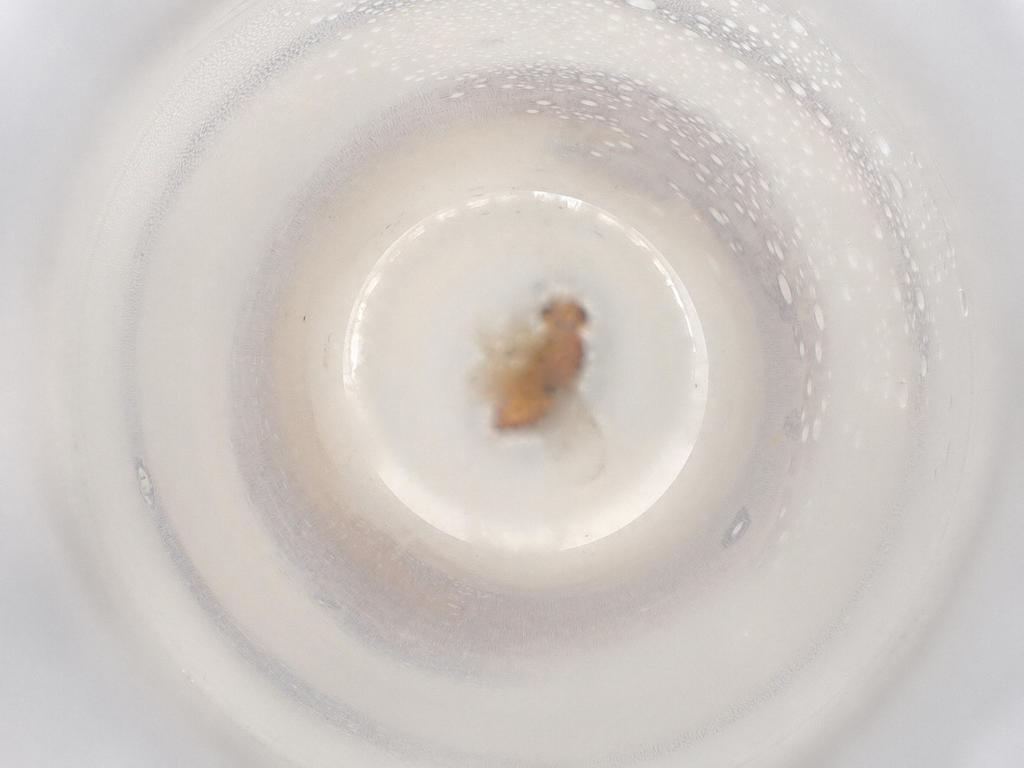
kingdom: Animalia
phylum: Arthropoda
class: Insecta
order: Diptera
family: Chloropidae
